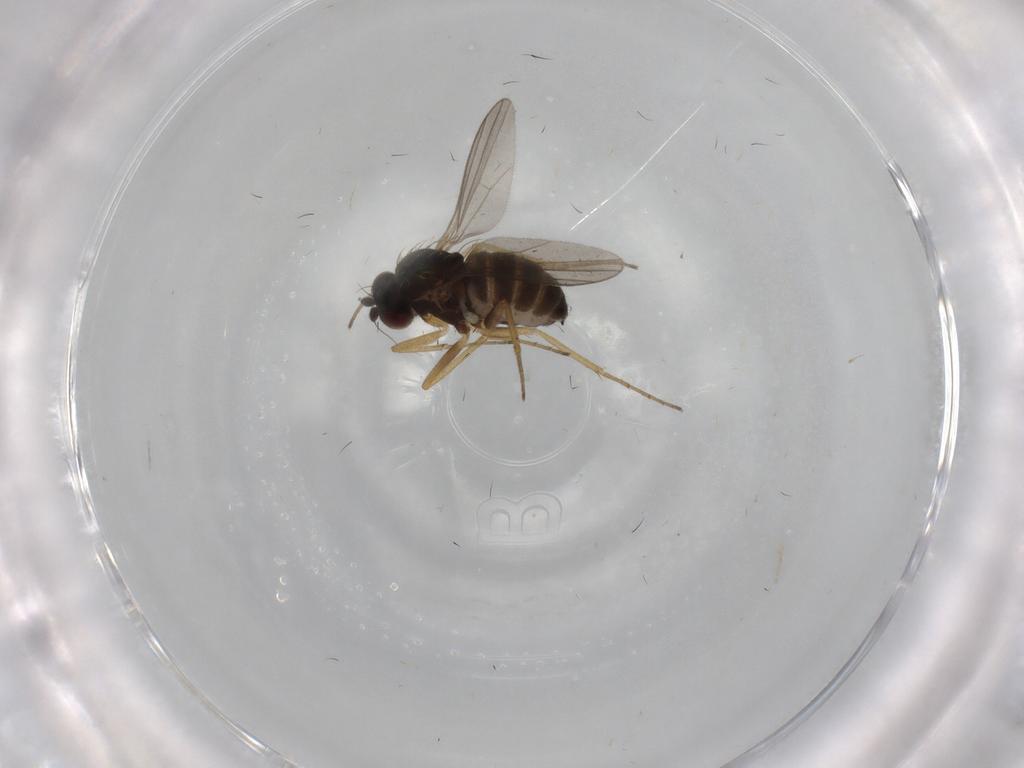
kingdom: Animalia
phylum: Arthropoda
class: Insecta
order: Diptera
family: Dolichopodidae
